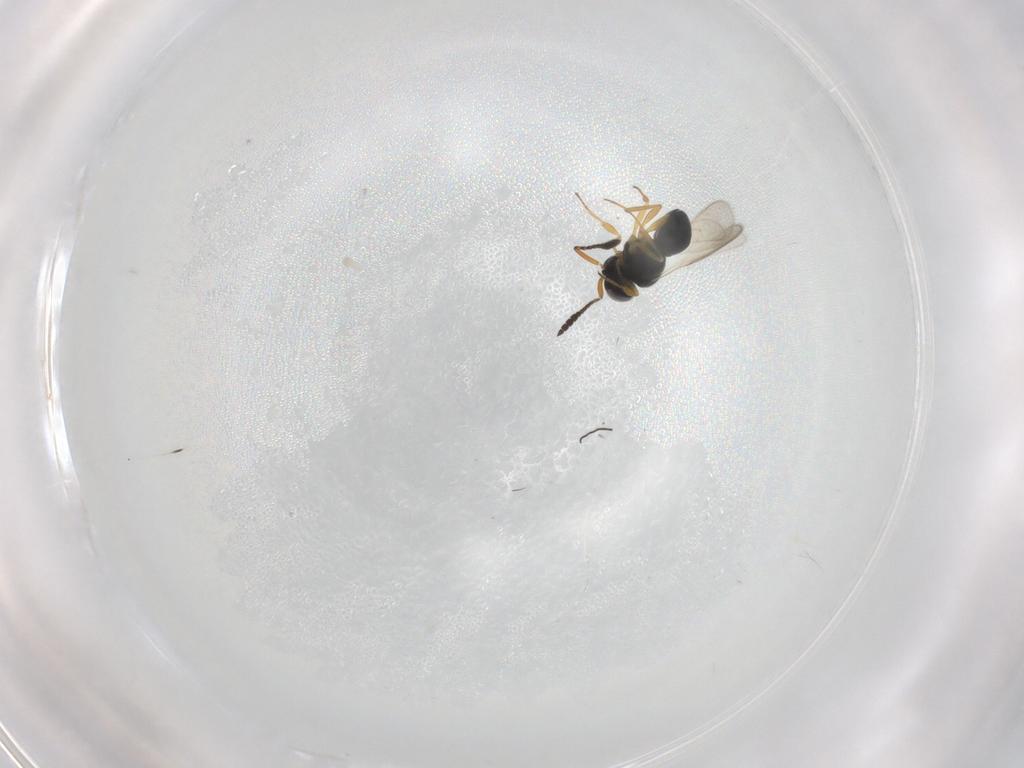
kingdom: Animalia
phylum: Arthropoda
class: Insecta
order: Hymenoptera
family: Scelionidae
